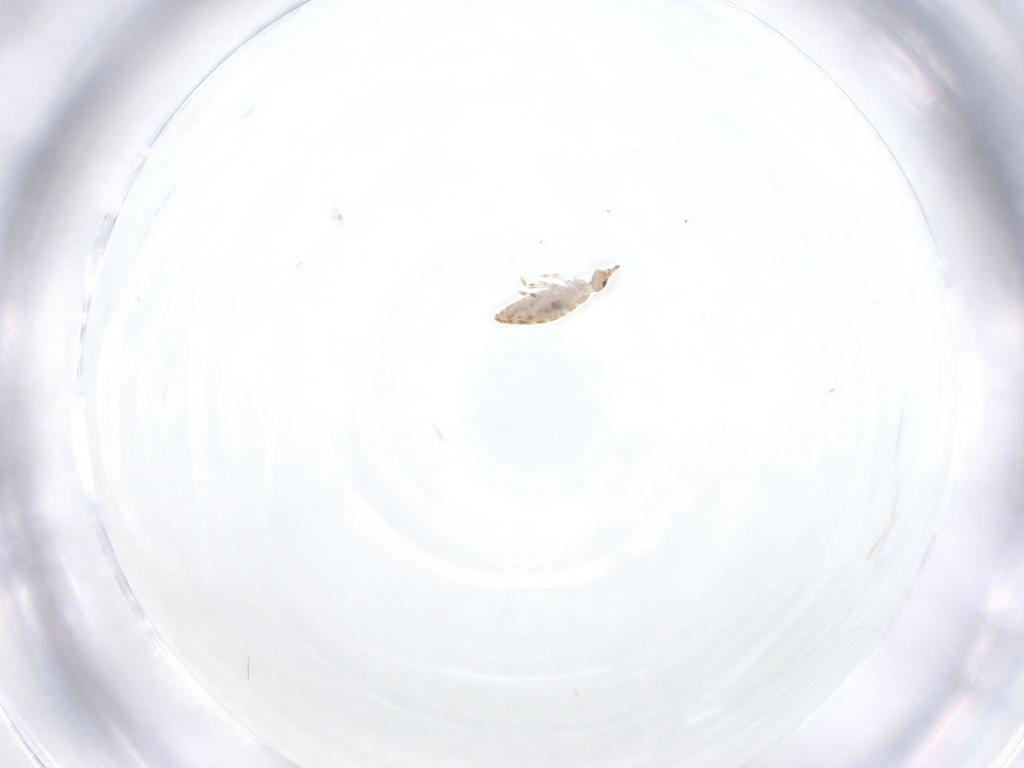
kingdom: Animalia
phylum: Arthropoda
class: Collembola
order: Entomobryomorpha
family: Entomobryidae
